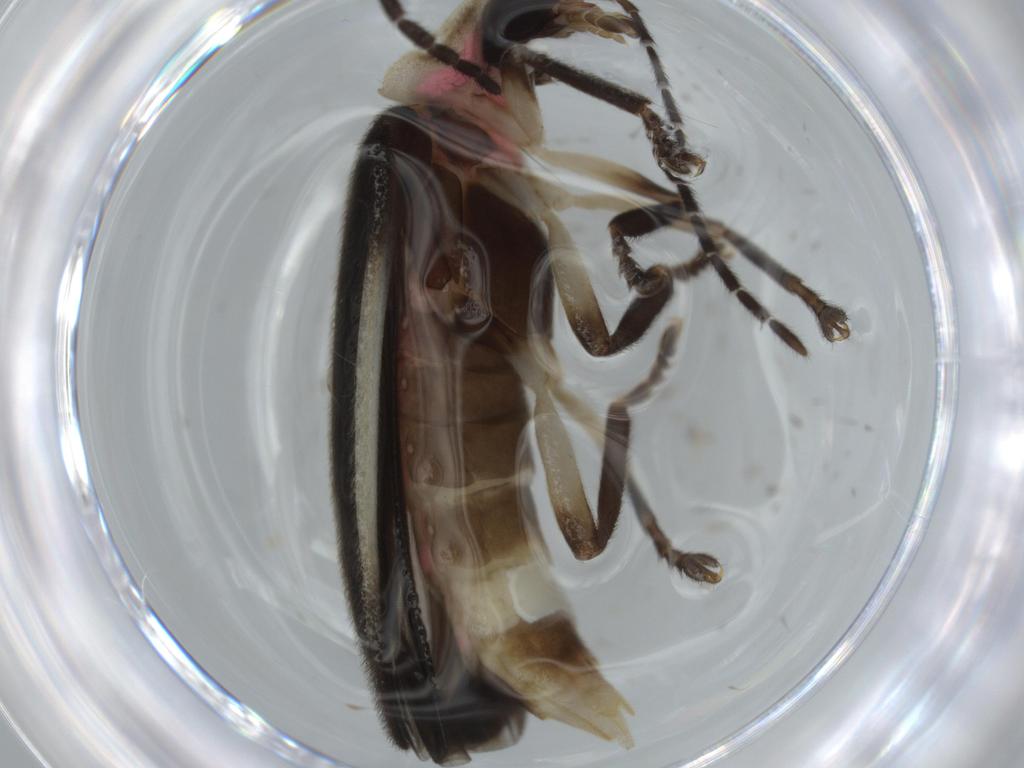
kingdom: Animalia
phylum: Arthropoda
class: Insecta
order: Coleoptera
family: Lampyridae
